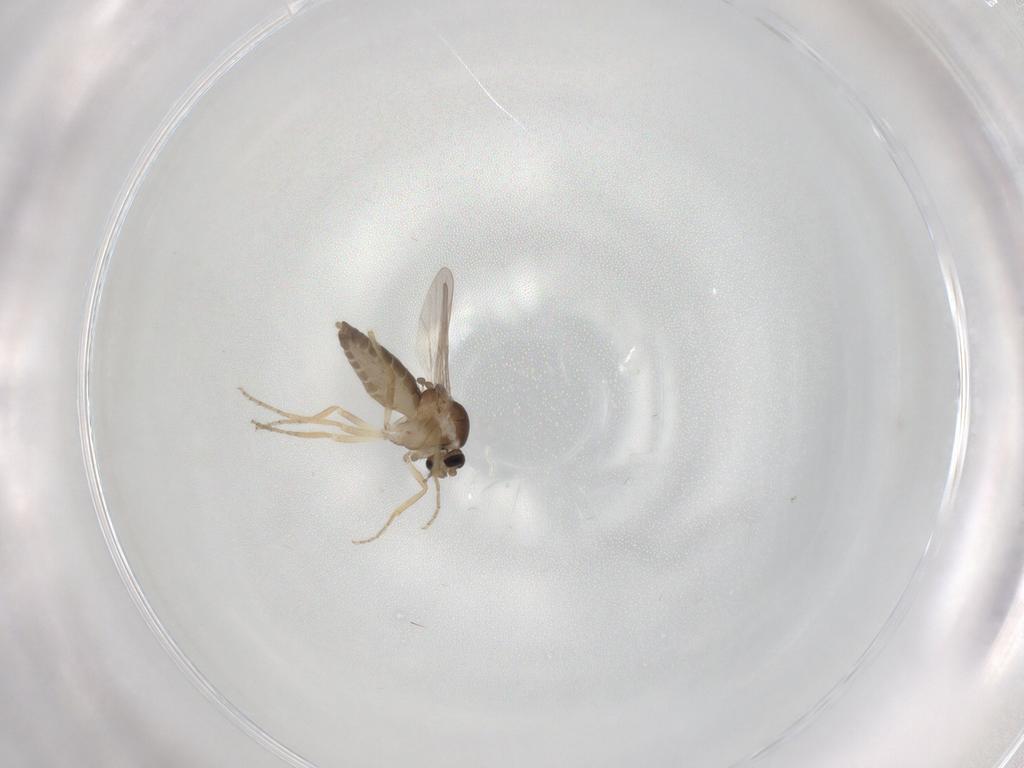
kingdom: Animalia
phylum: Arthropoda
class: Insecta
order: Diptera
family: Ceratopogonidae
